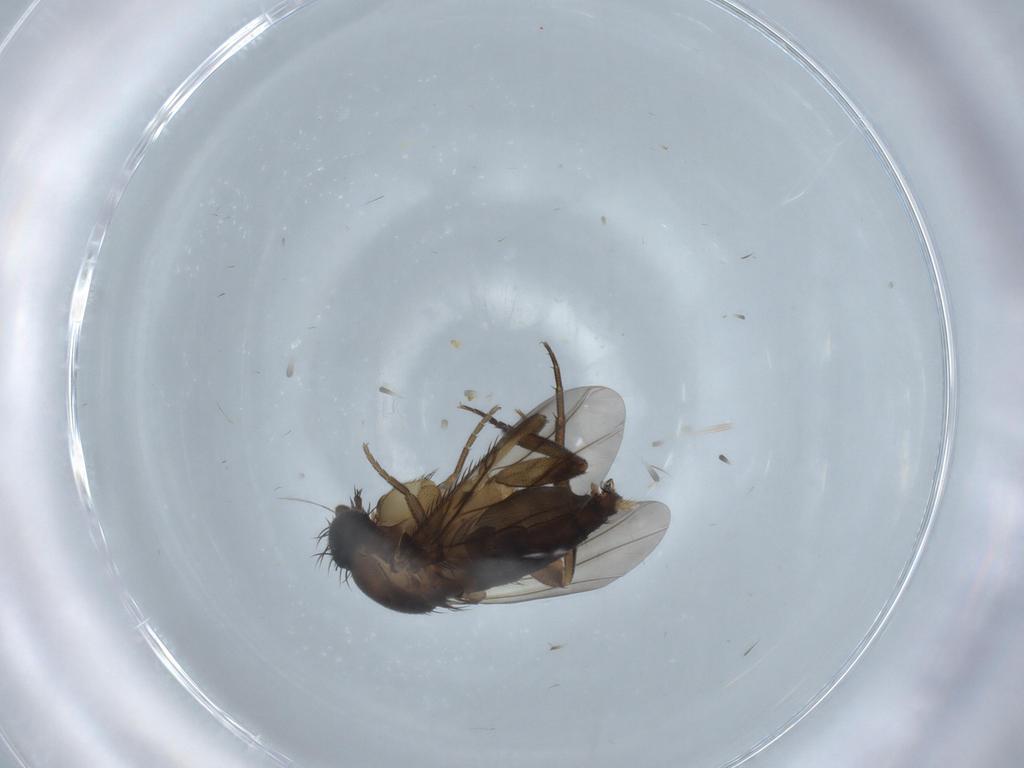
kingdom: Animalia
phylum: Arthropoda
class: Insecta
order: Diptera
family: Phoridae
